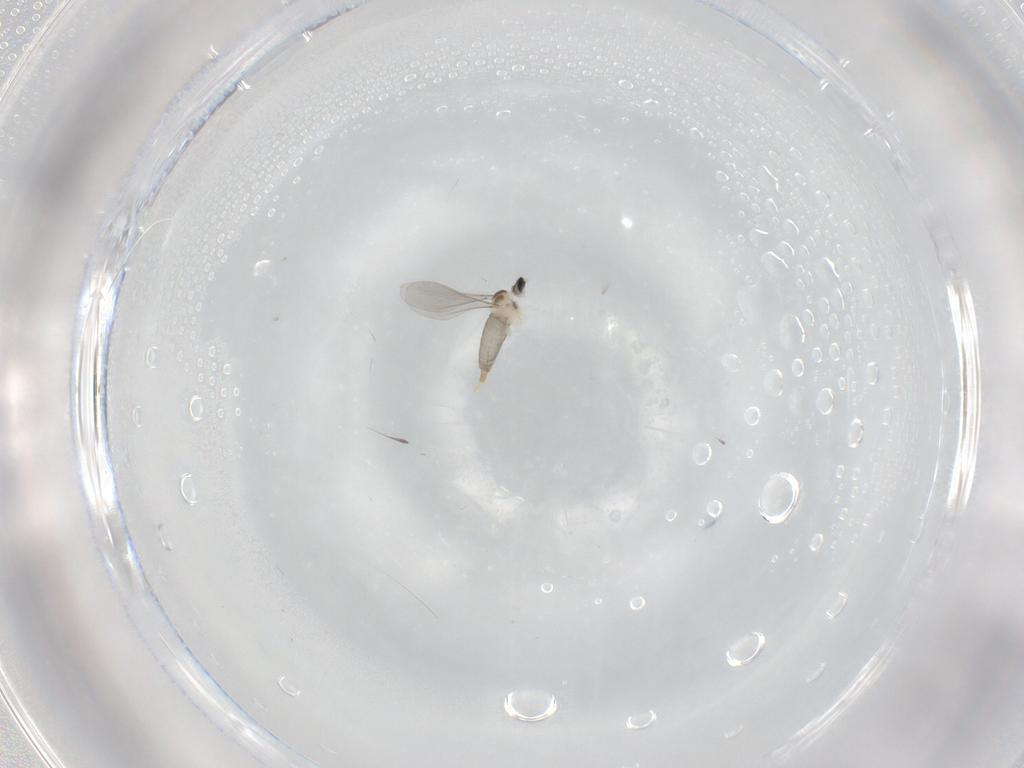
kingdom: Animalia
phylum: Arthropoda
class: Insecta
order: Diptera
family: Cecidomyiidae
